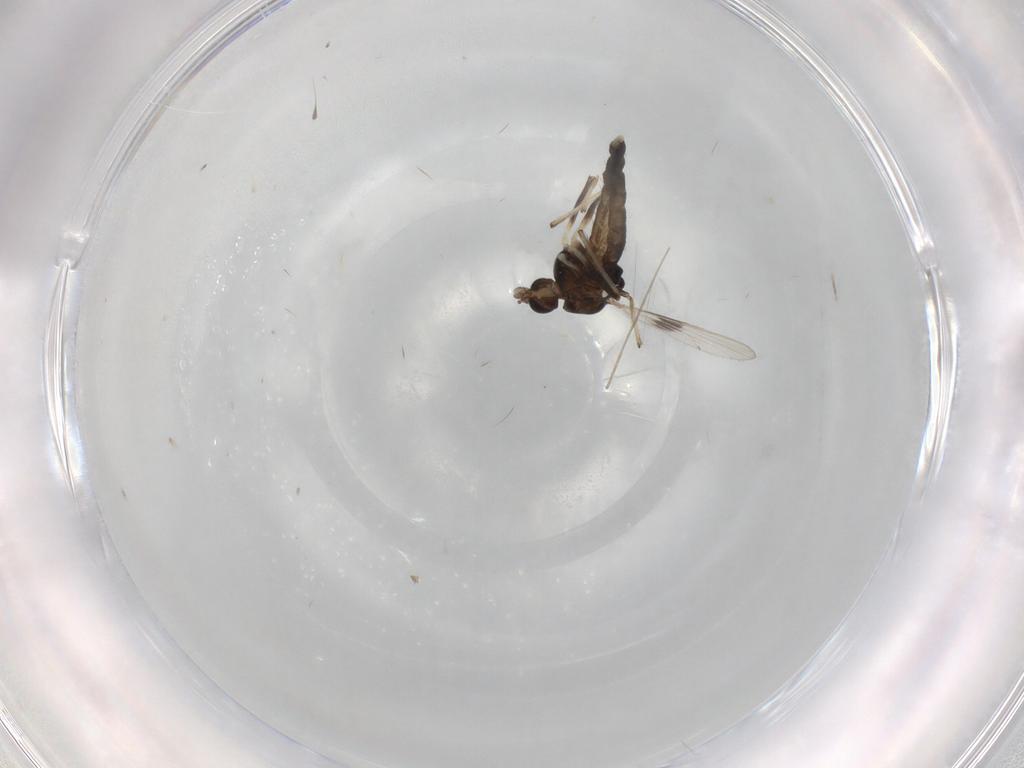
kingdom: Animalia
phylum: Arthropoda
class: Insecta
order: Diptera
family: Chironomidae
